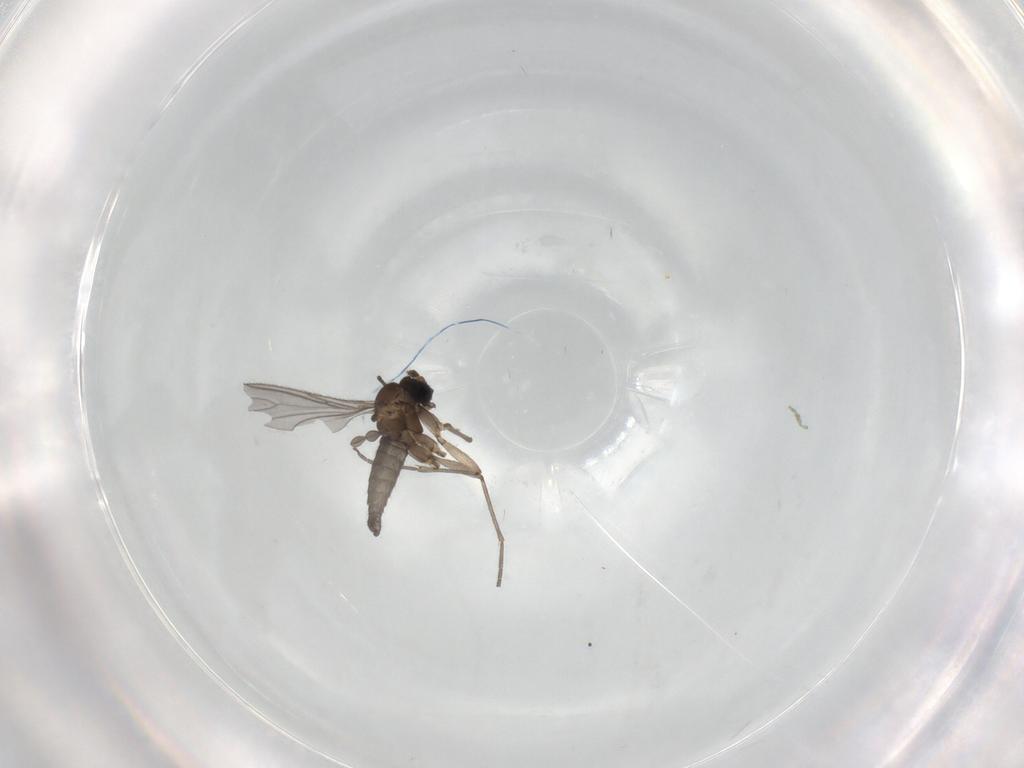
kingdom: Animalia
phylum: Arthropoda
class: Insecta
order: Diptera
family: Sciaridae
